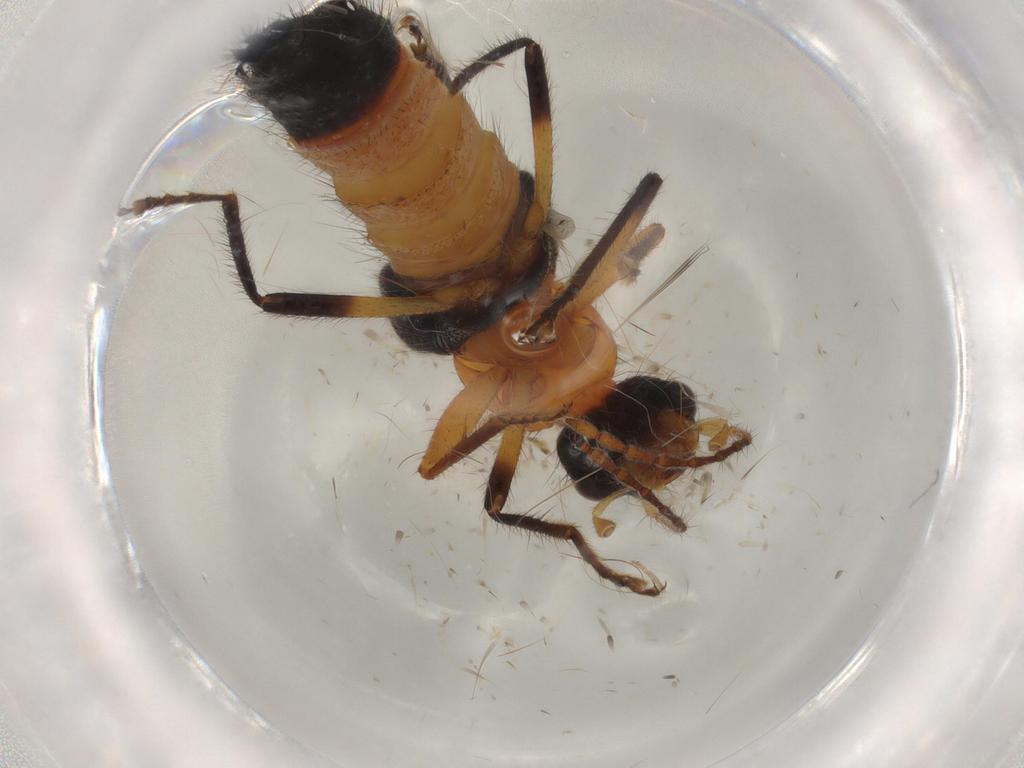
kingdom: Animalia
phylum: Arthropoda
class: Insecta
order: Coleoptera
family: Staphylinidae
